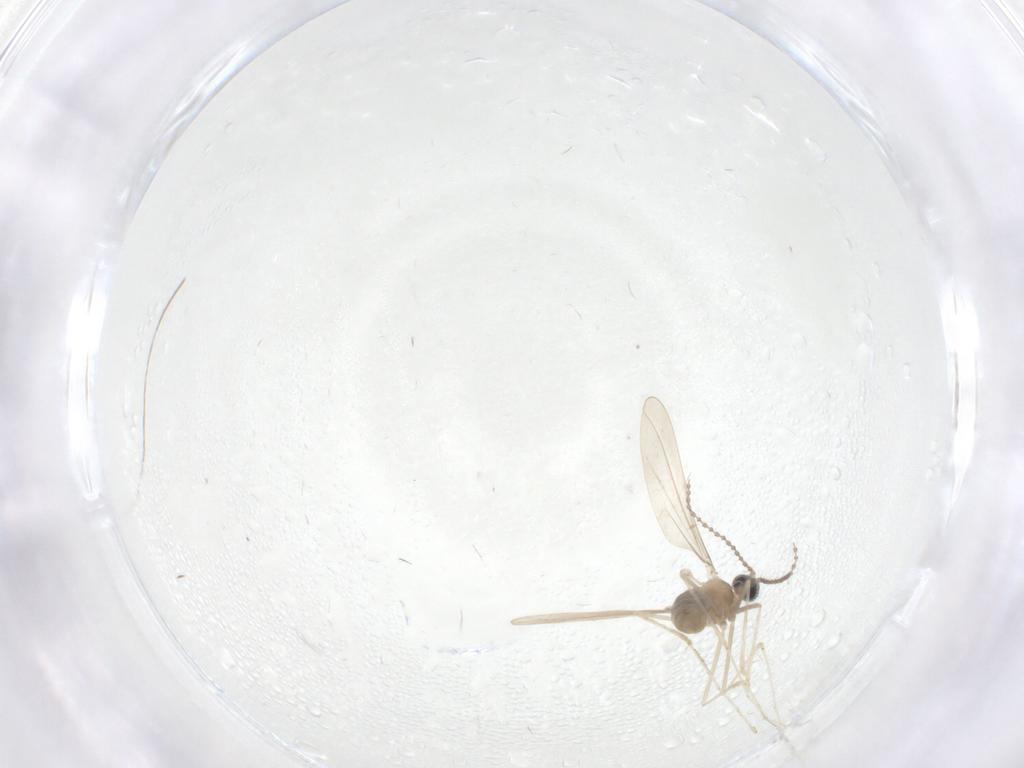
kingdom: Animalia
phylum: Arthropoda
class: Insecta
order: Diptera
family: Cecidomyiidae
